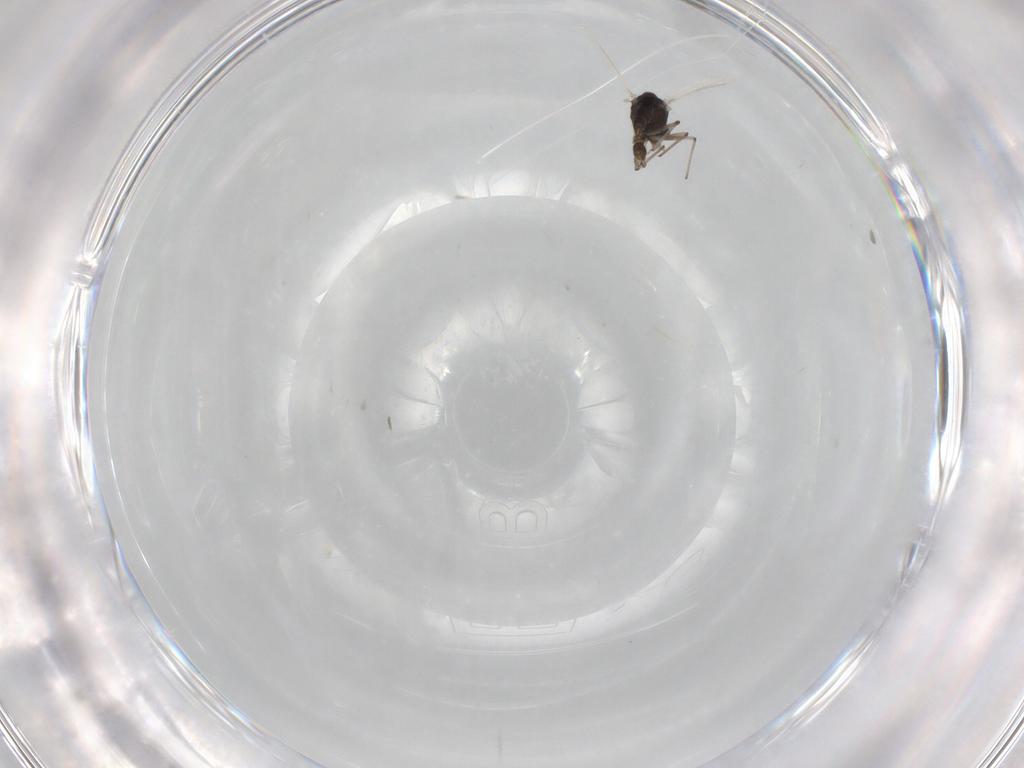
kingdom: Animalia
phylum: Arthropoda
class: Insecta
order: Diptera
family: Chironomidae
